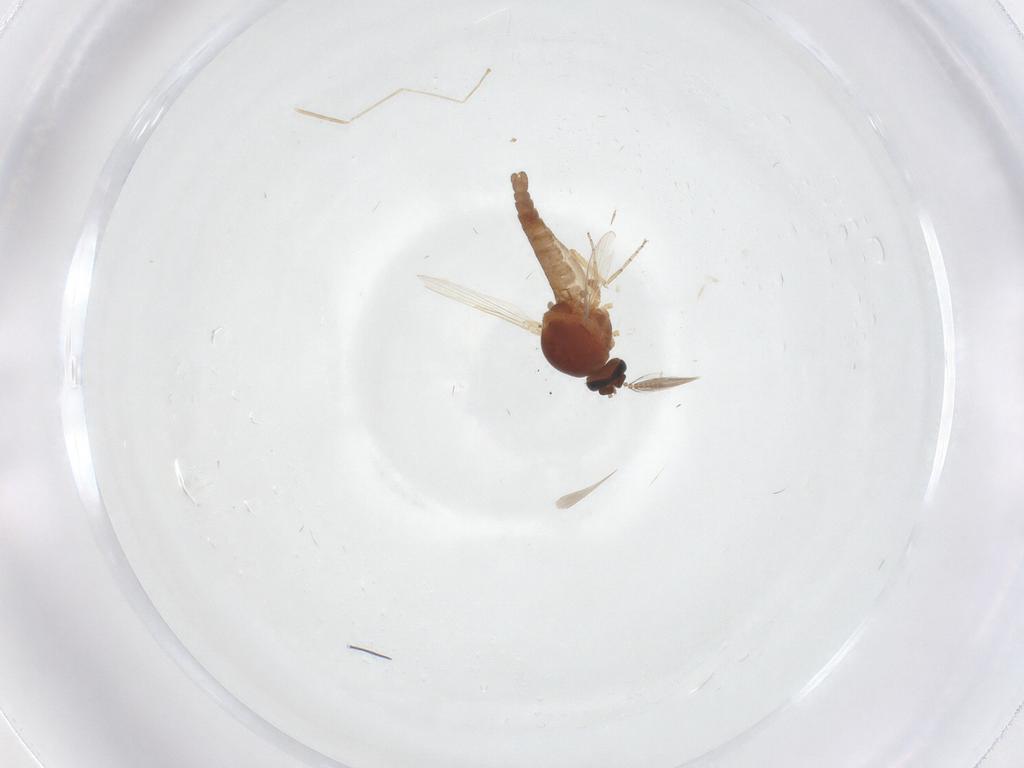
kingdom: Animalia
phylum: Arthropoda
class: Insecta
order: Diptera
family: Ceratopogonidae
